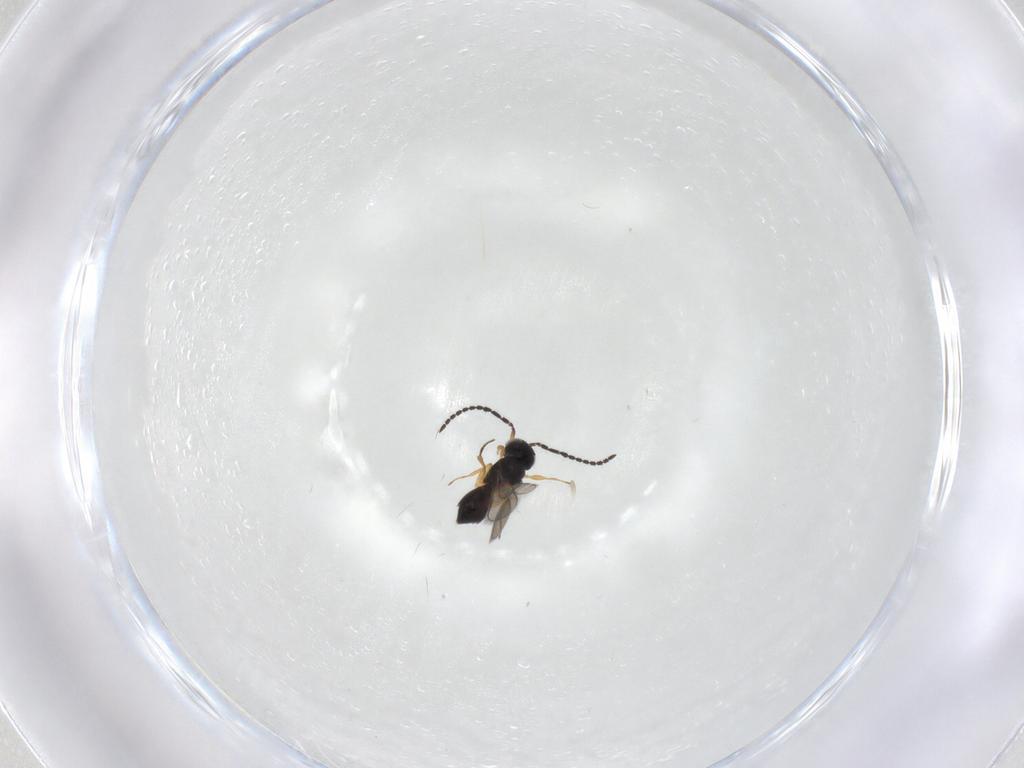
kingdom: Animalia
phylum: Arthropoda
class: Insecta
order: Hymenoptera
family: Scelionidae
